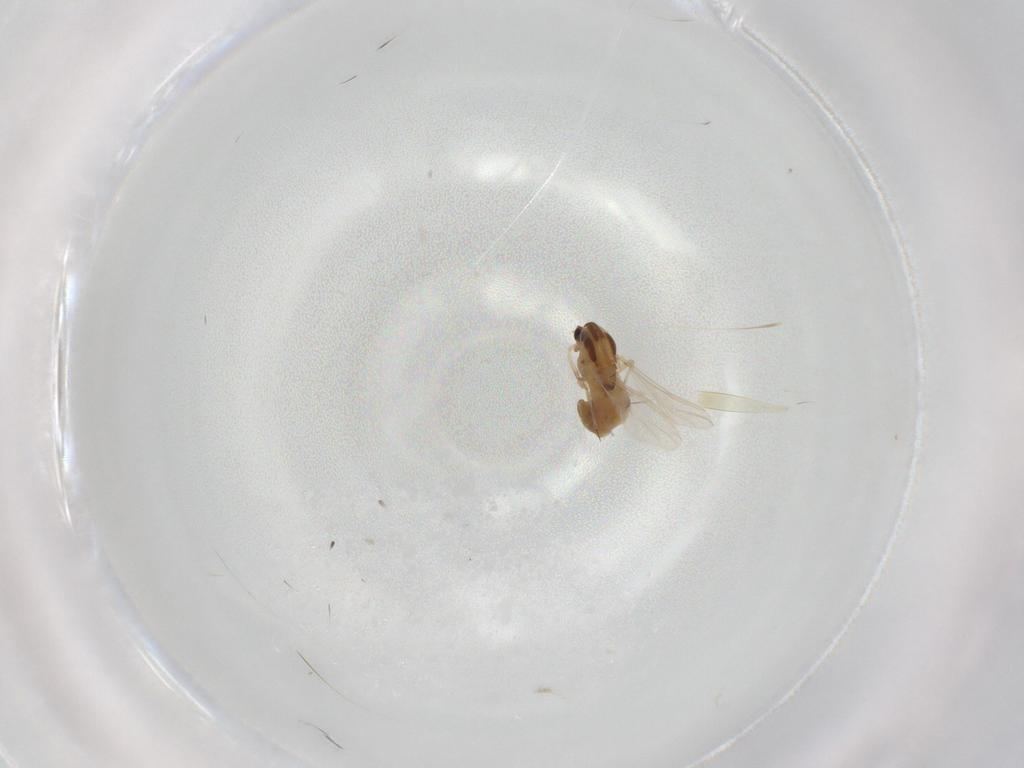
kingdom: Animalia
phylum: Arthropoda
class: Insecta
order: Diptera
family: Chironomidae
